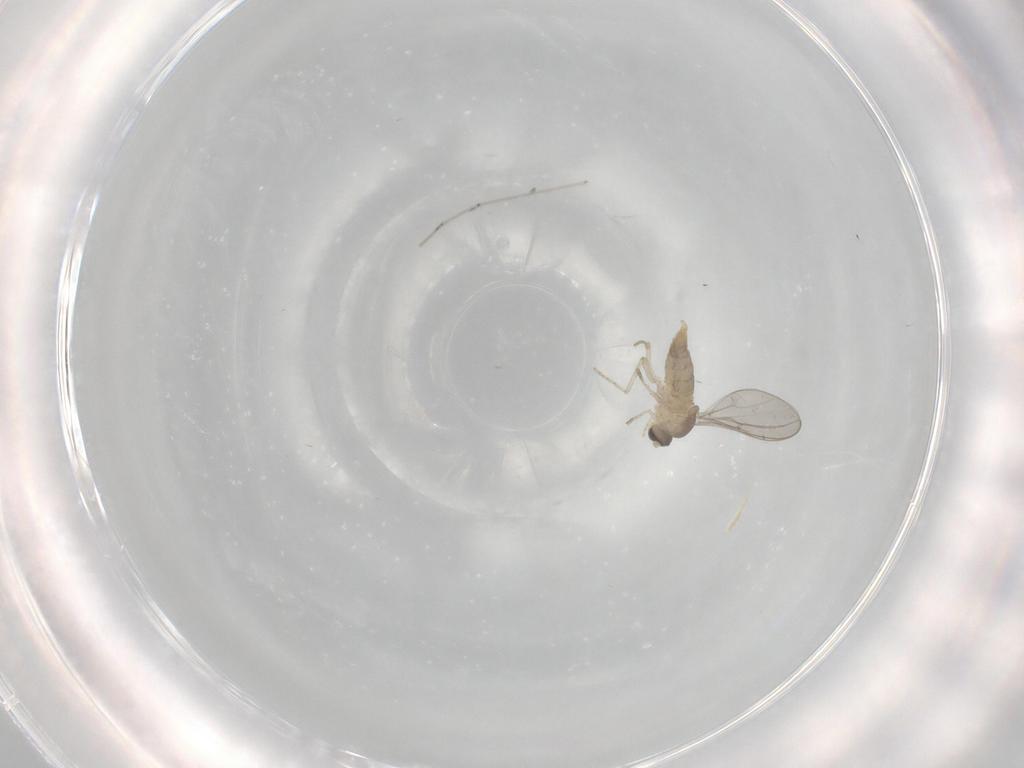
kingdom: Animalia
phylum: Arthropoda
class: Insecta
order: Diptera
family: Cecidomyiidae
